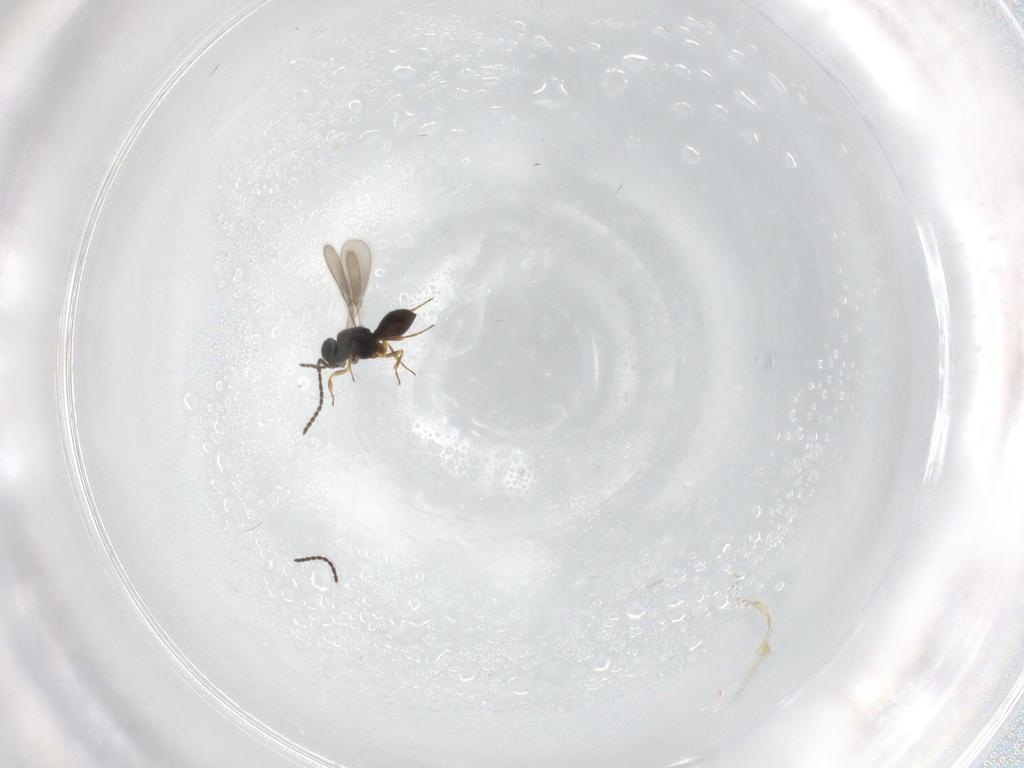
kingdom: Animalia
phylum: Arthropoda
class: Insecta
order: Hymenoptera
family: Scelionidae
